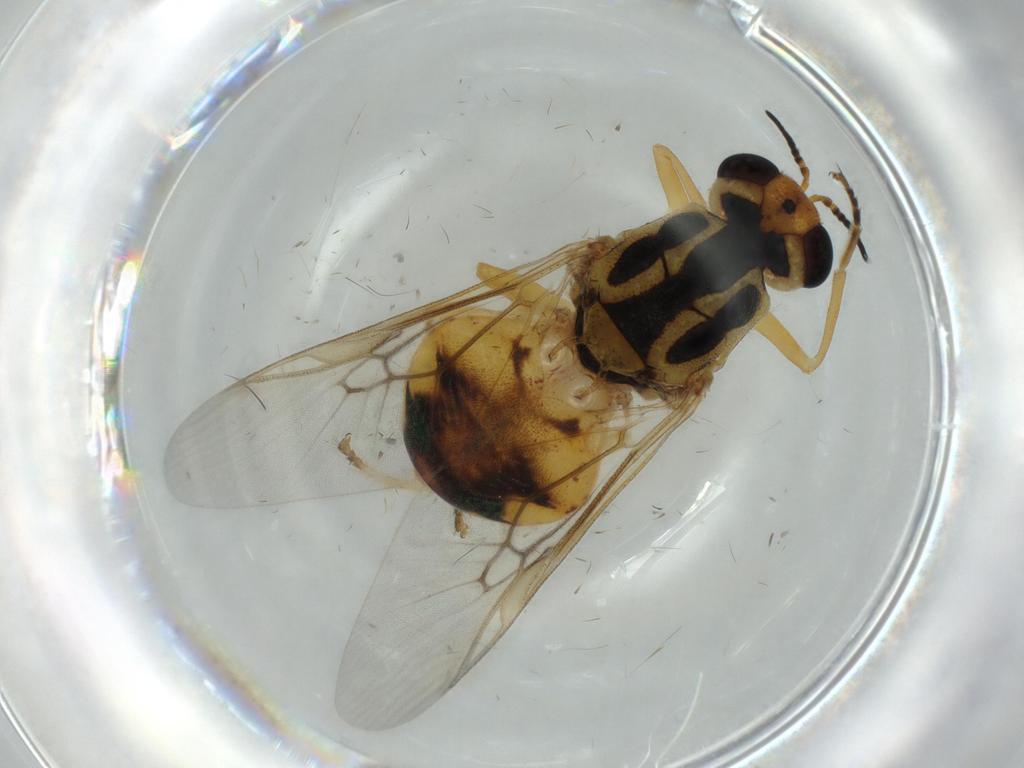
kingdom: Animalia
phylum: Arthropoda
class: Insecta
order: Diptera
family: Stratiomyidae
